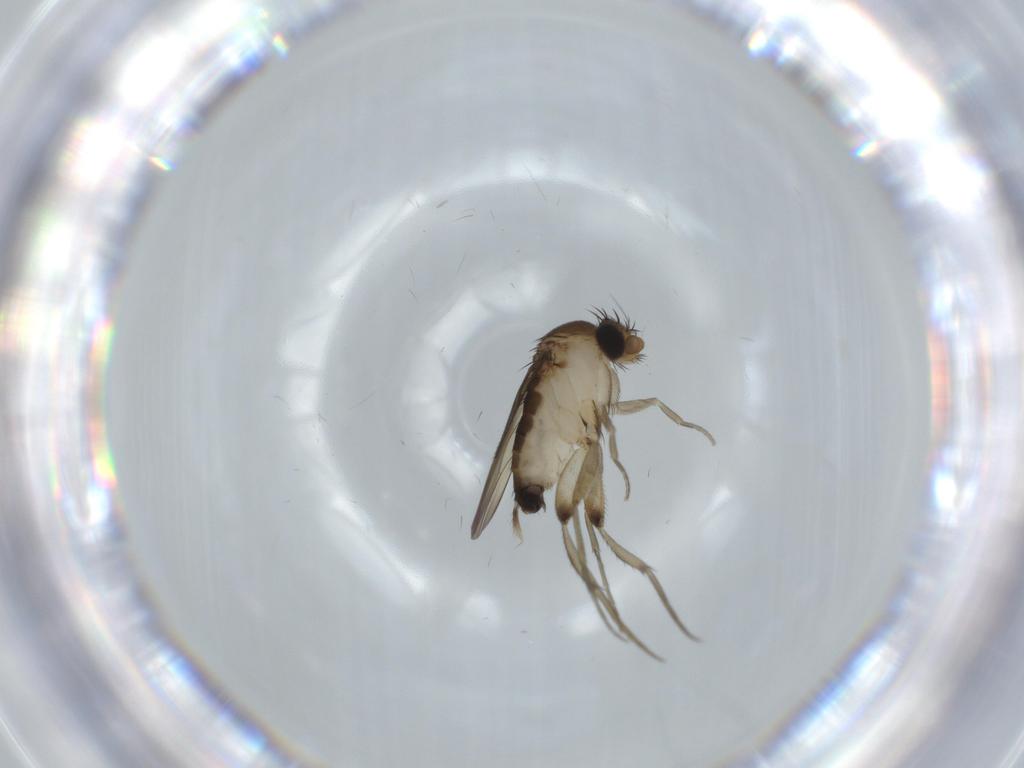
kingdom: Animalia
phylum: Arthropoda
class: Insecta
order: Diptera
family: Phoridae
